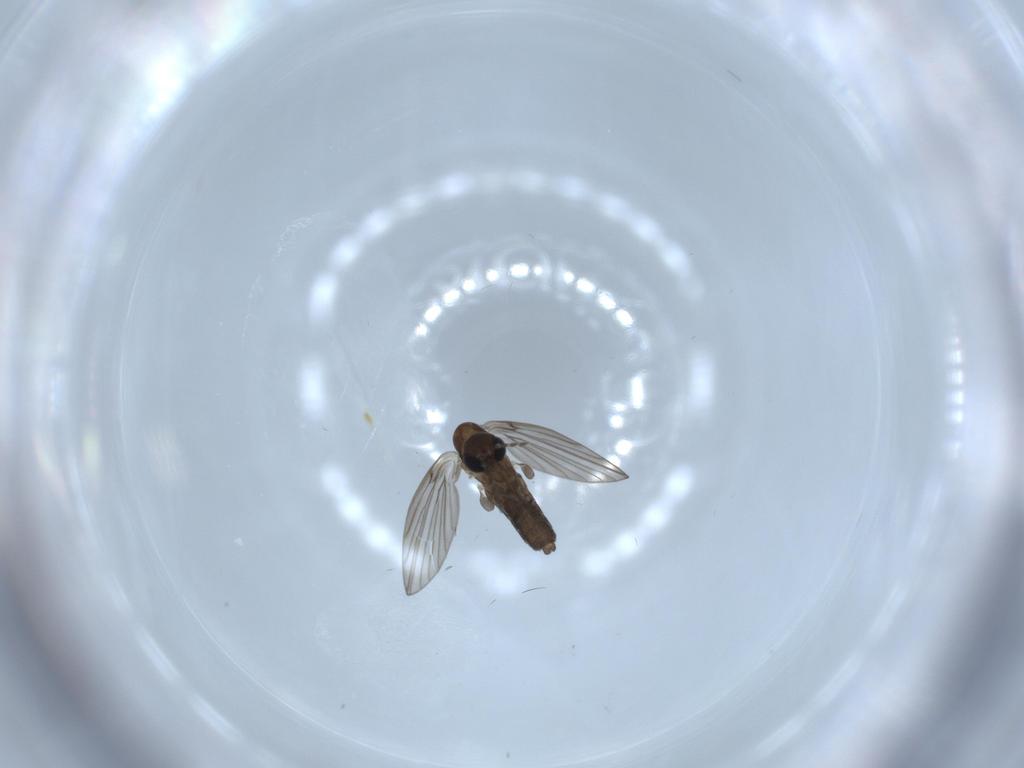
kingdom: Animalia
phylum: Arthropoda
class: Insecta
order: Diptera
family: Psychodidae
